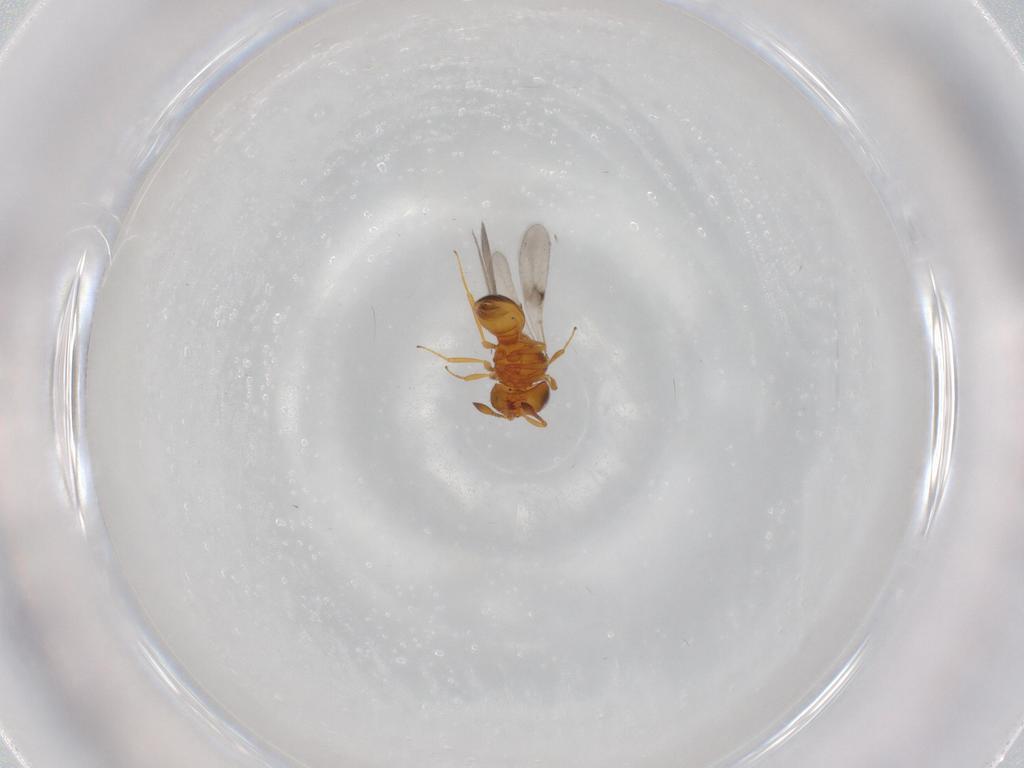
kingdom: Animalia
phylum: Arthropoda
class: Insecta
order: Hymenoptera
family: Scelionidae
